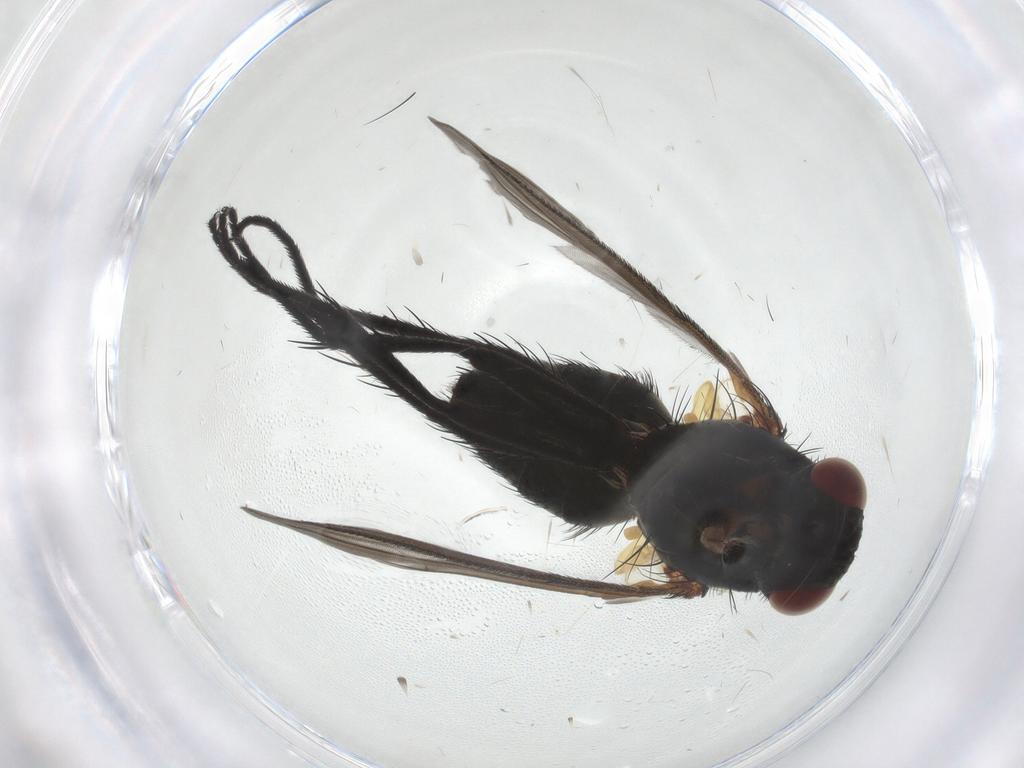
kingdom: Animalia
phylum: Arthropoda
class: Insecta
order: Diptera
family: Tachinidae
